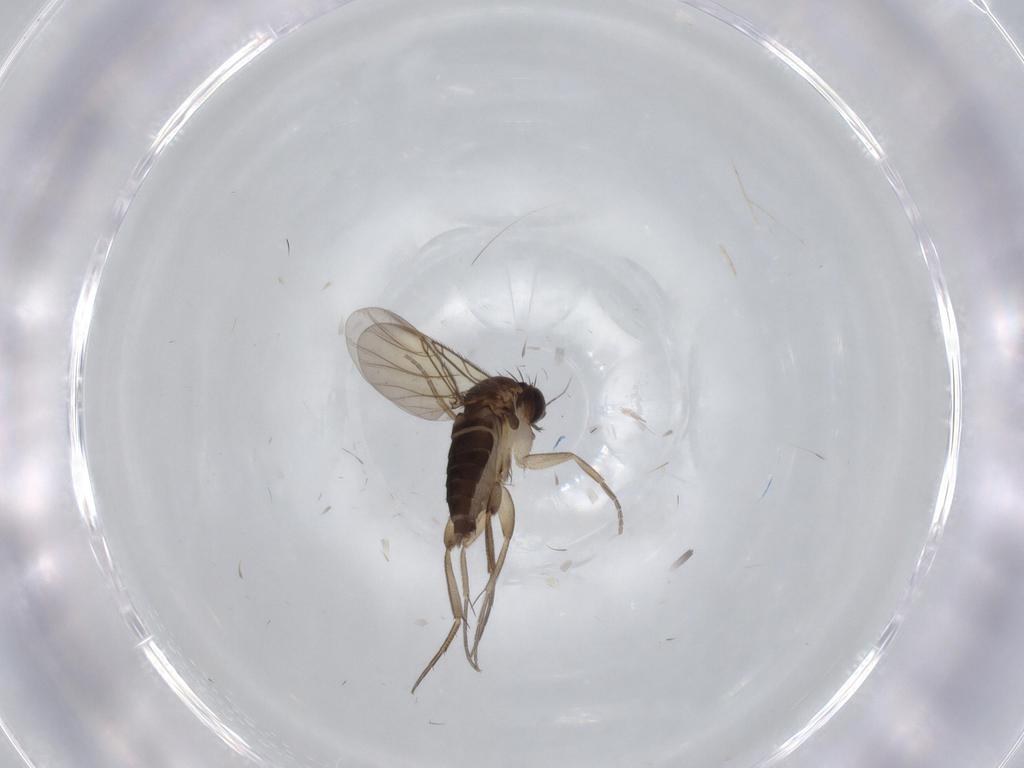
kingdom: Animalia
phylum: Arthropoda
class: Insecta
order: Diptera
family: Phoridae
